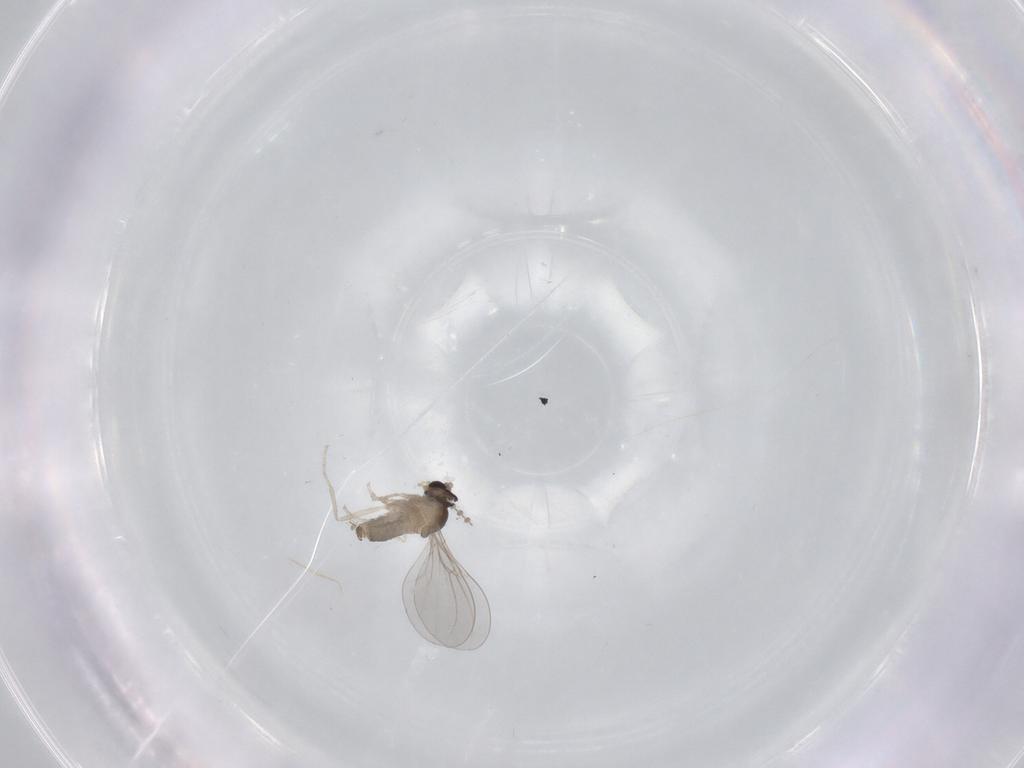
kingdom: Animalia
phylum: Arthropoda
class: Insecta
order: Diptera
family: Cecidomyiidae
